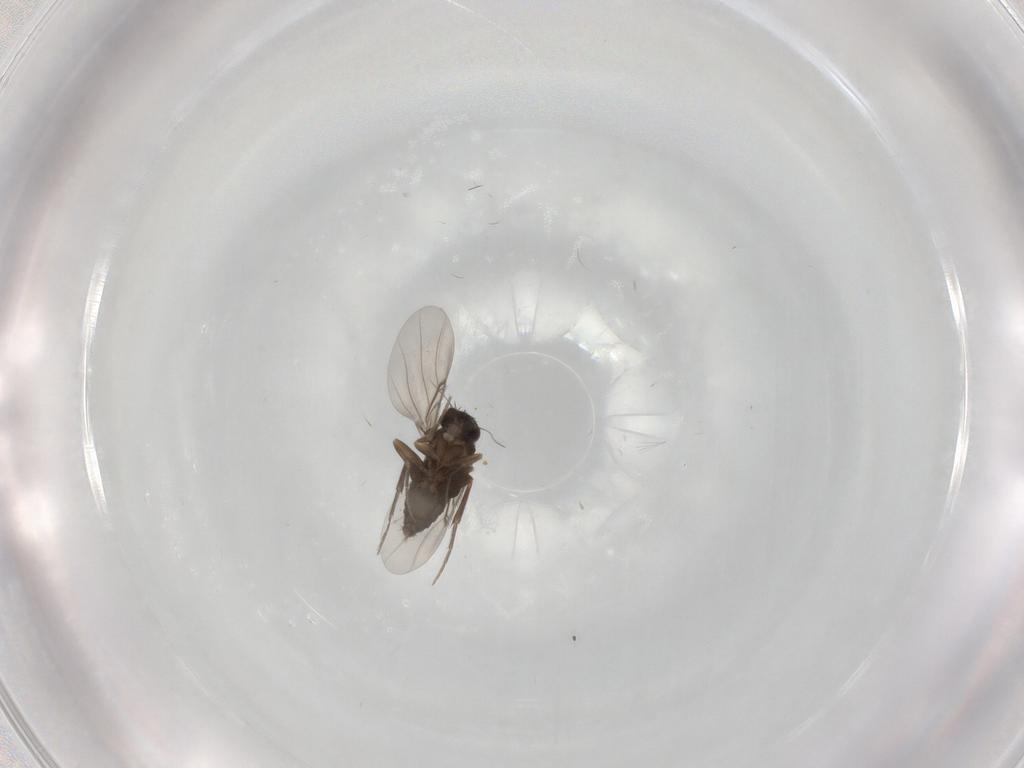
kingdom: Animalia
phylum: Arthropoda
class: Insecta
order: Diptera
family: Phoridae
